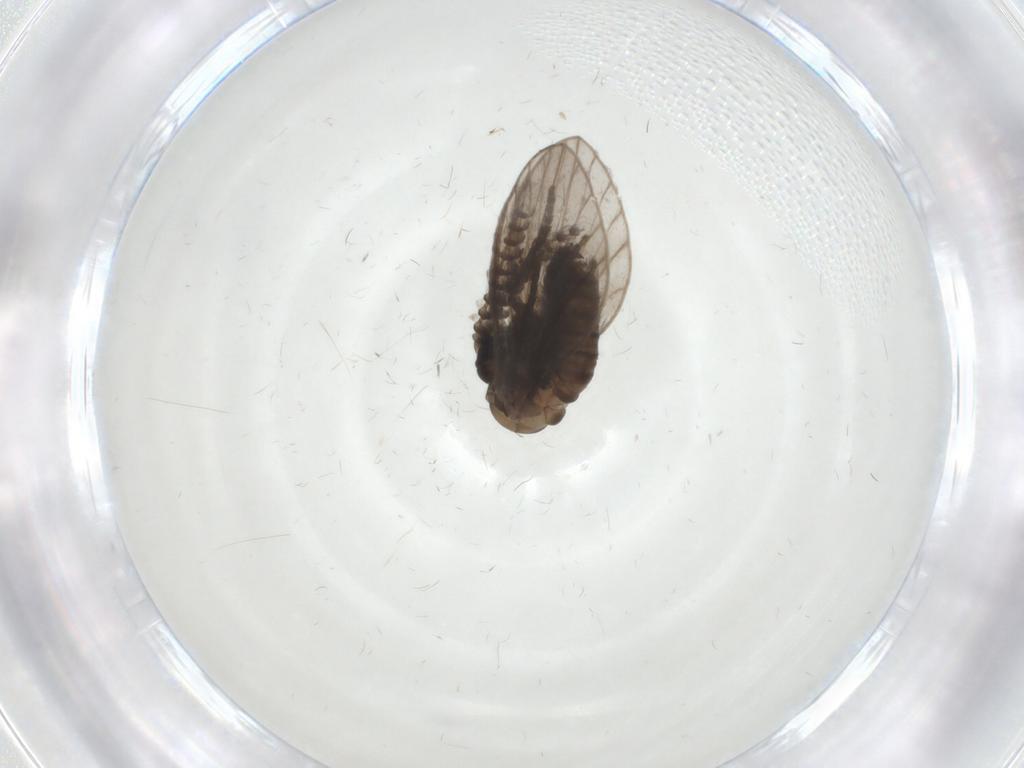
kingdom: Animalia
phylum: Arthropoda
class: Insecta
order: Diptera
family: Psychodidae
